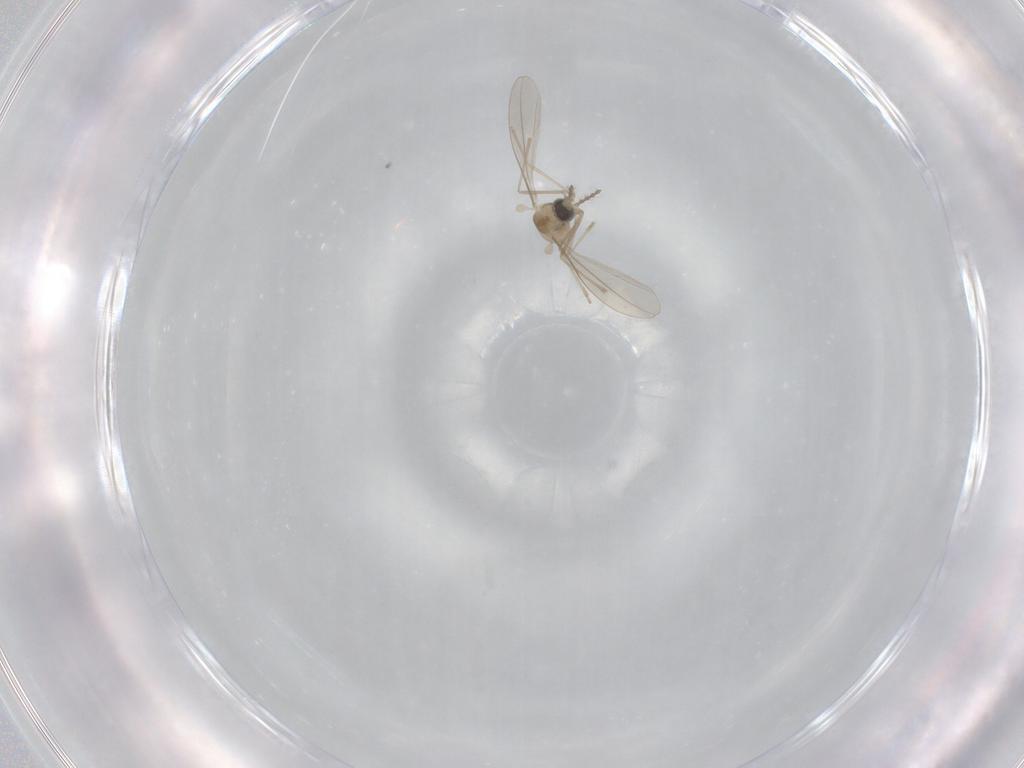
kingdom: Animalia
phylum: Arthropoda
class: Insecta
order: Diptera
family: Cecidomyiidae
